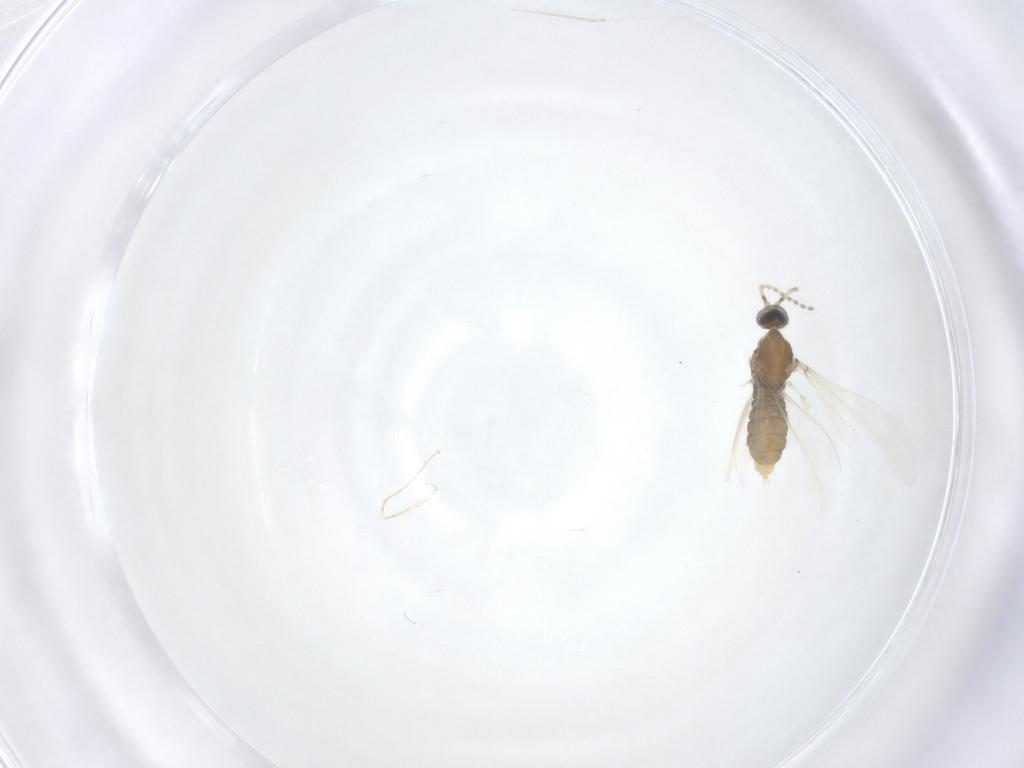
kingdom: Animalia
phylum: Arthropoda
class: Insecta
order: Diptera
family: Cecidomyiidae
